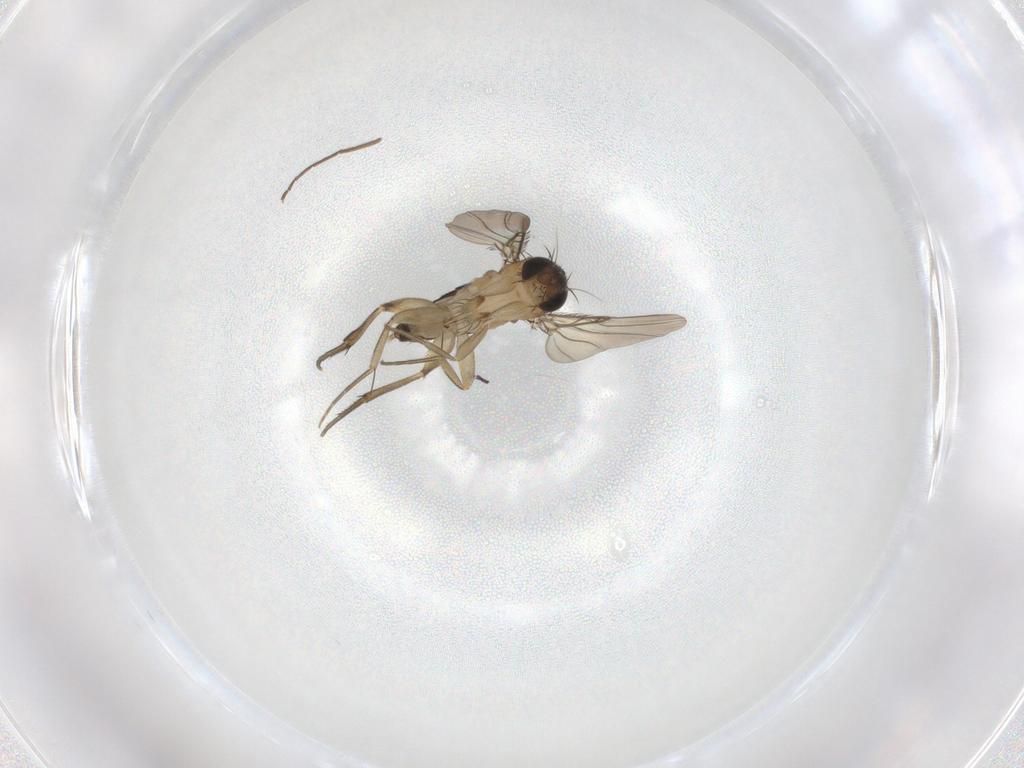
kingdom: Animalia
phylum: Arthropoda
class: Insecta
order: Diptera
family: Phoridae
